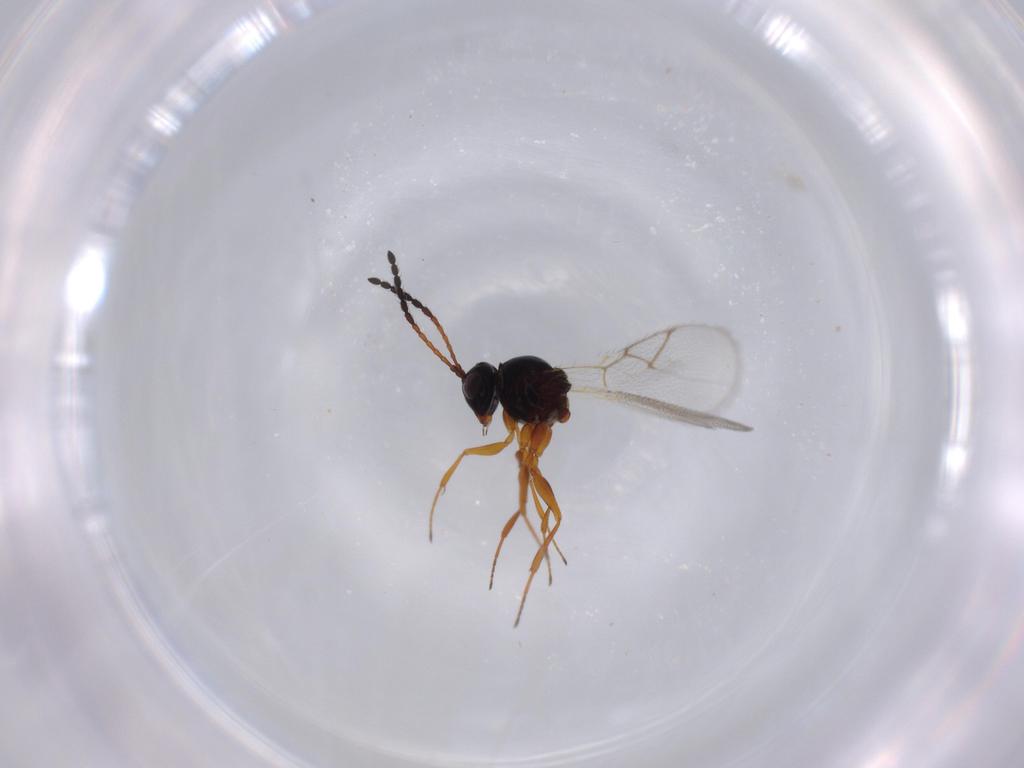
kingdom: Animalia
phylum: Arthropoda
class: Insecta
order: Hymenoptera
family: Figitidae
